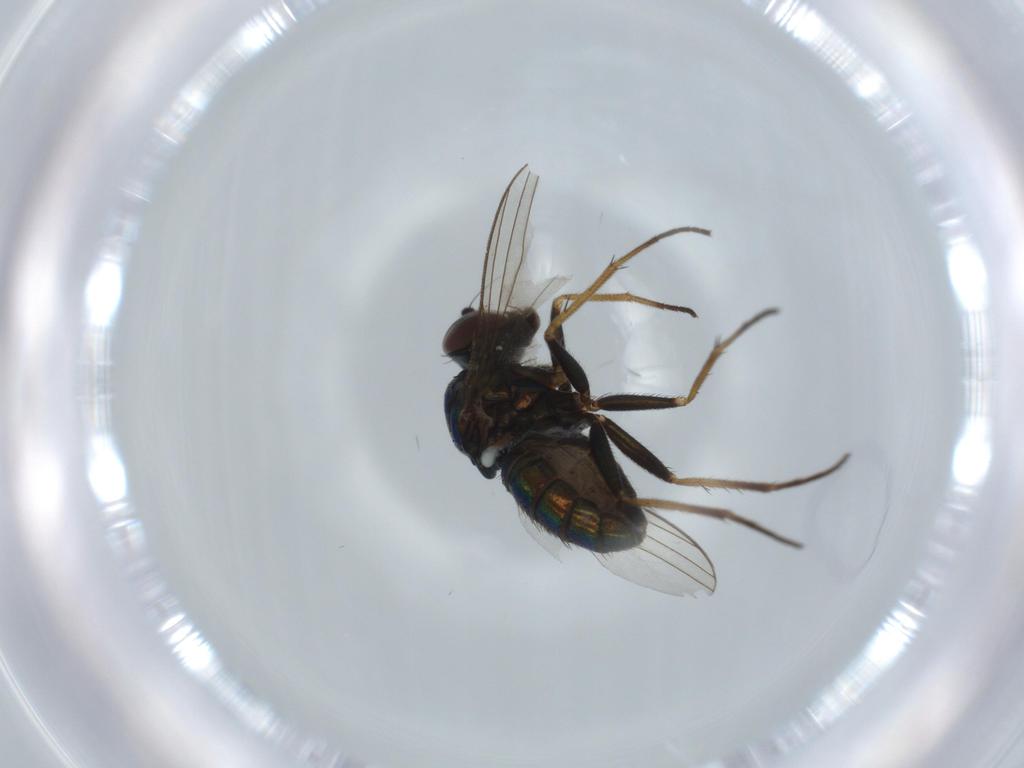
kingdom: Animalia
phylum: Arthropoda
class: Insecta
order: Diptera
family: Dolichopodidae
